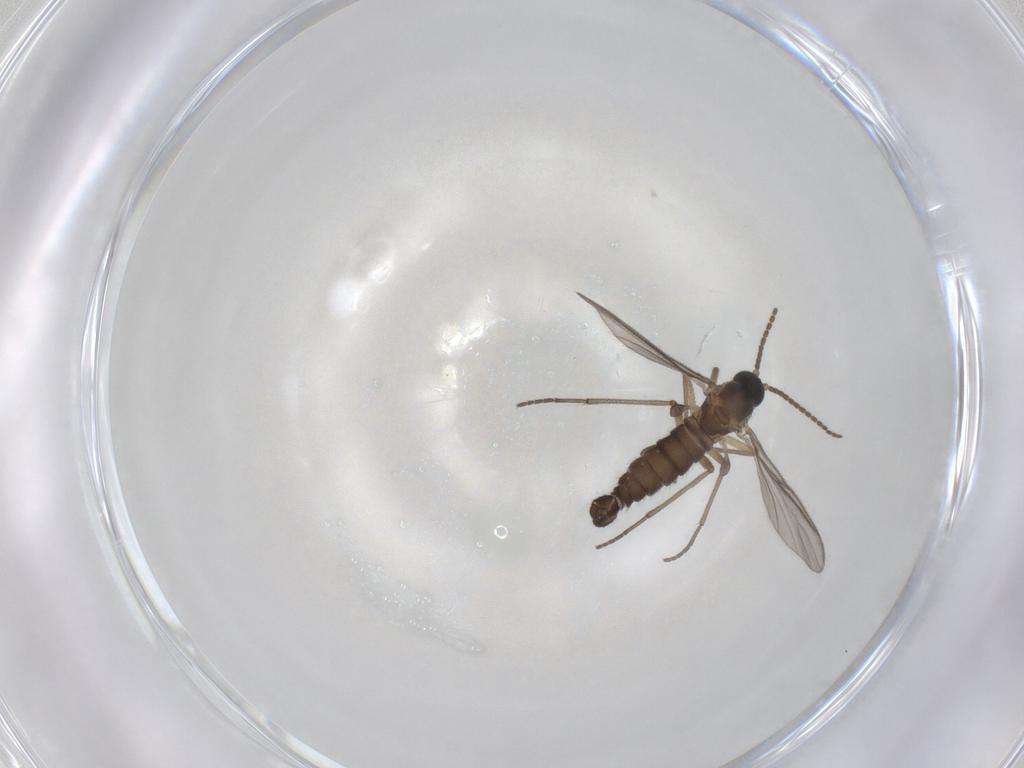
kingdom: Animalia
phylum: Arthropoda
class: Insecta
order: Diptera
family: Sciaridae
